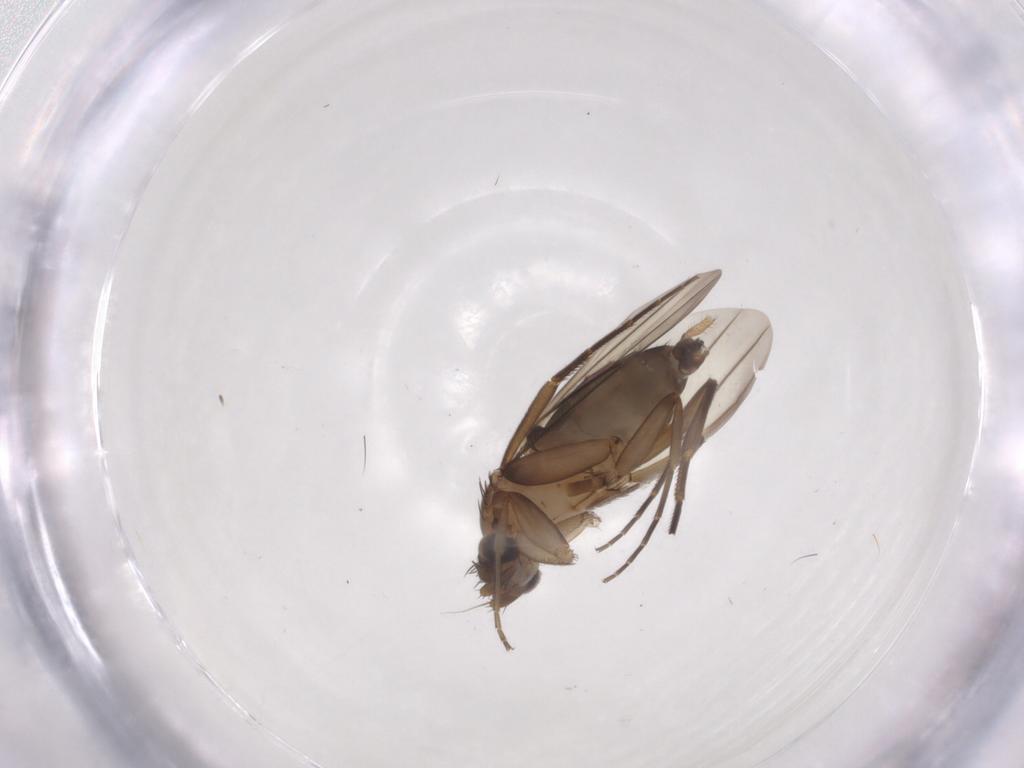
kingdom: Animalia
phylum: Arthropoda
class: Insecta
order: Diptera
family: Phoridae
